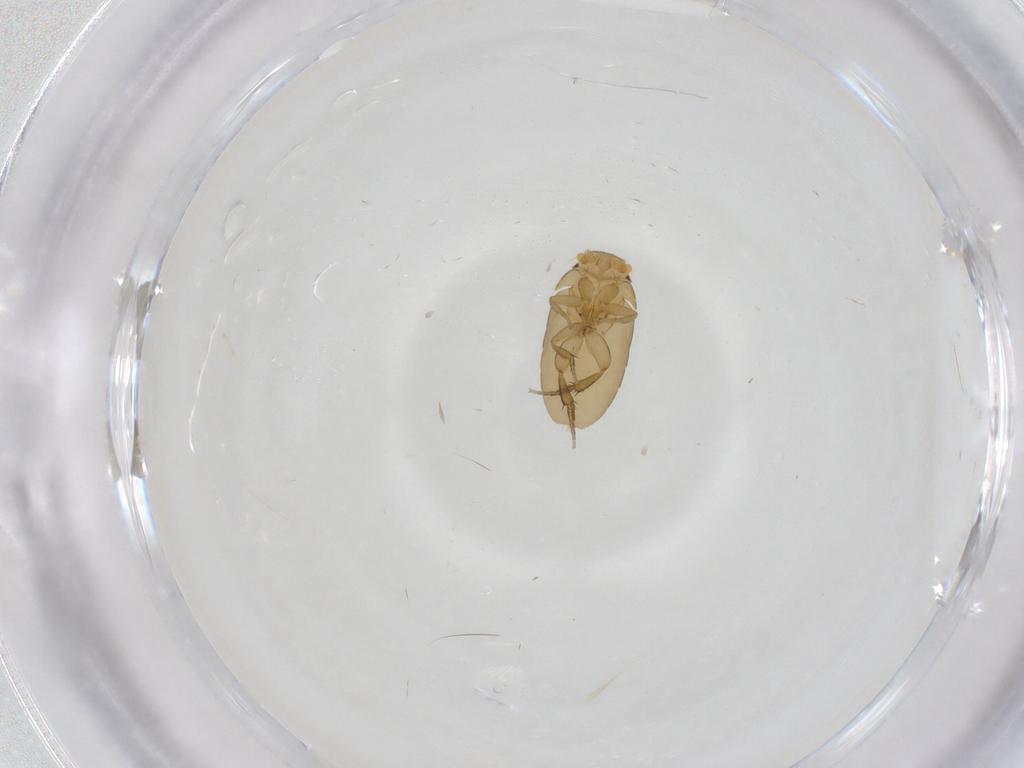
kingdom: Animalia
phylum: Arthropoda
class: Insecta
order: Diptera
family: Phoridae
